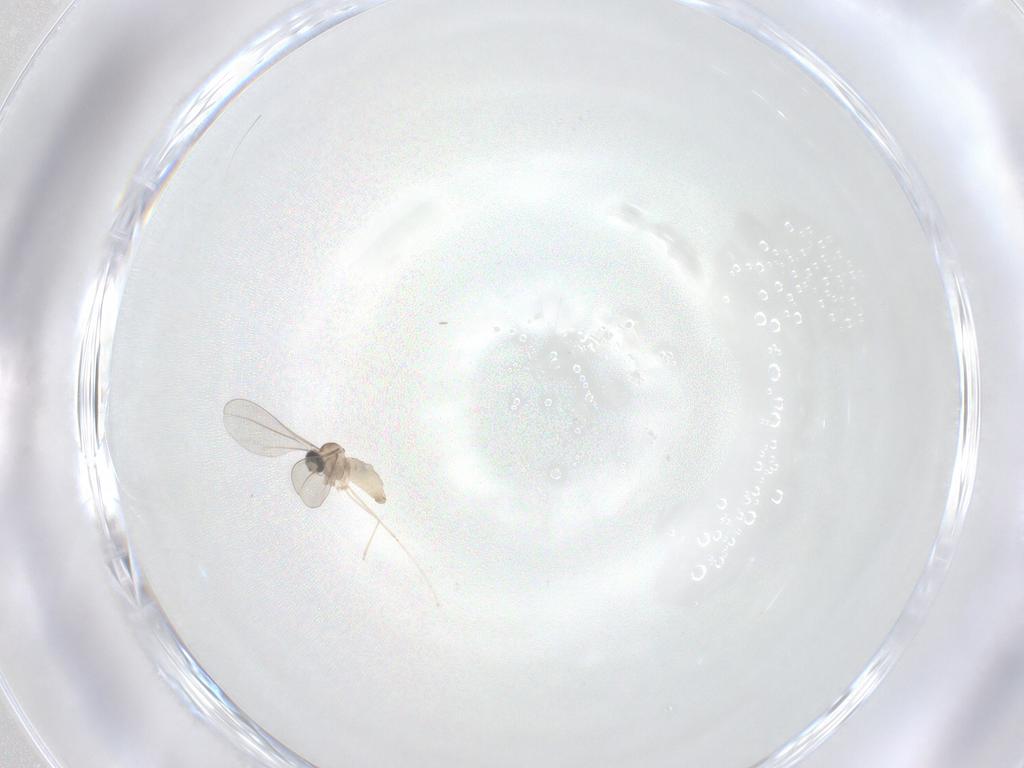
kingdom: Animalia
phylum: Arthropoda
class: Insecta
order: Diptera
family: Cecidomyiidae
